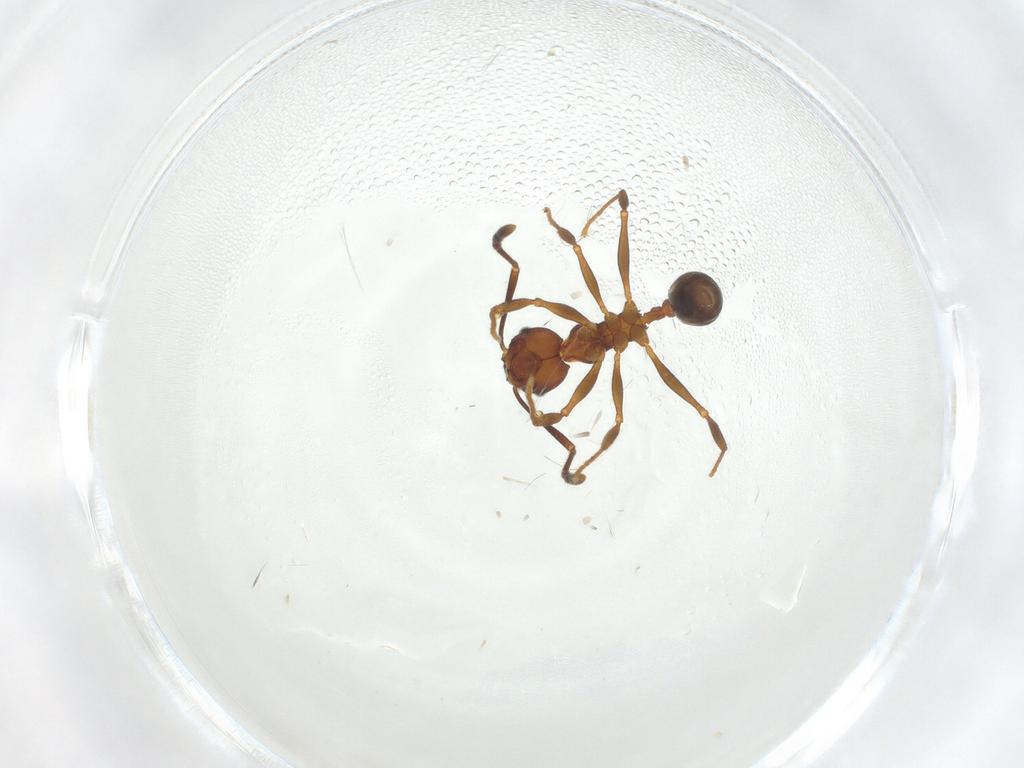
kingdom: Animalia
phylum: Arthropoda
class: Insecta
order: Hymenoptera
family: Formicidae
